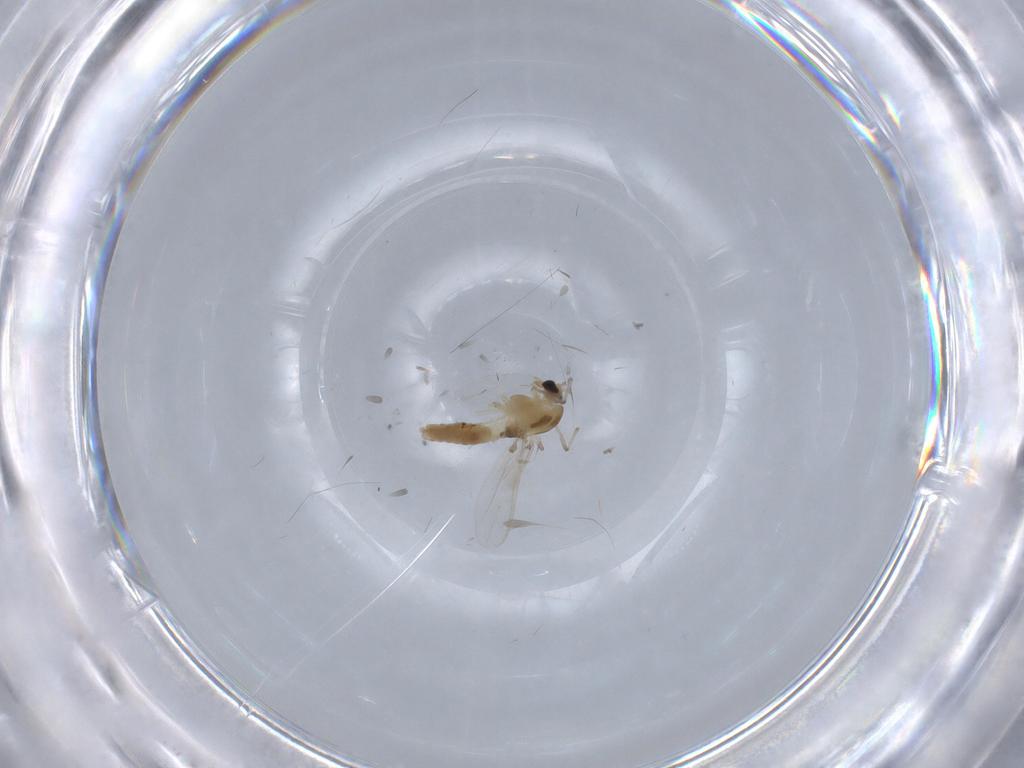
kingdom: Animalia
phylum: Arthropoda
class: Insecta
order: Diptera
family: Chironomidae
